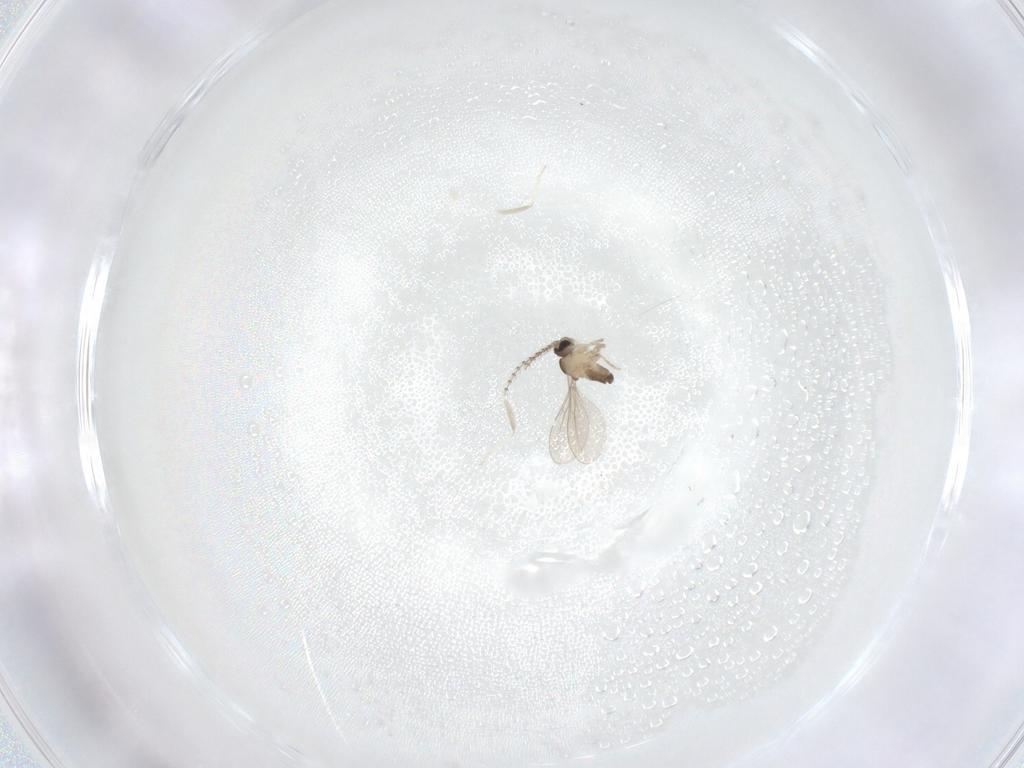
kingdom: Animalia
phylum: Arthropoda
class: Insecta
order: Diptera
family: Cecidomyiidae
